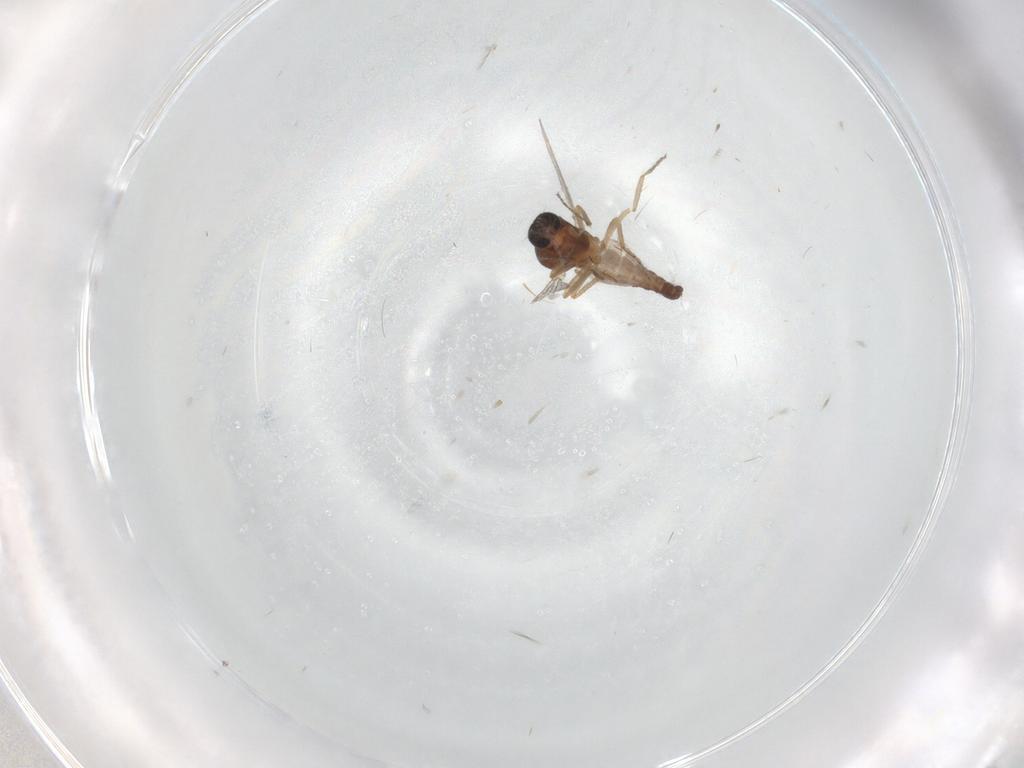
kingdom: Animalia
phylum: Arthropoda
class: Insecta
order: Diptera
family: Ceratopogonidae
